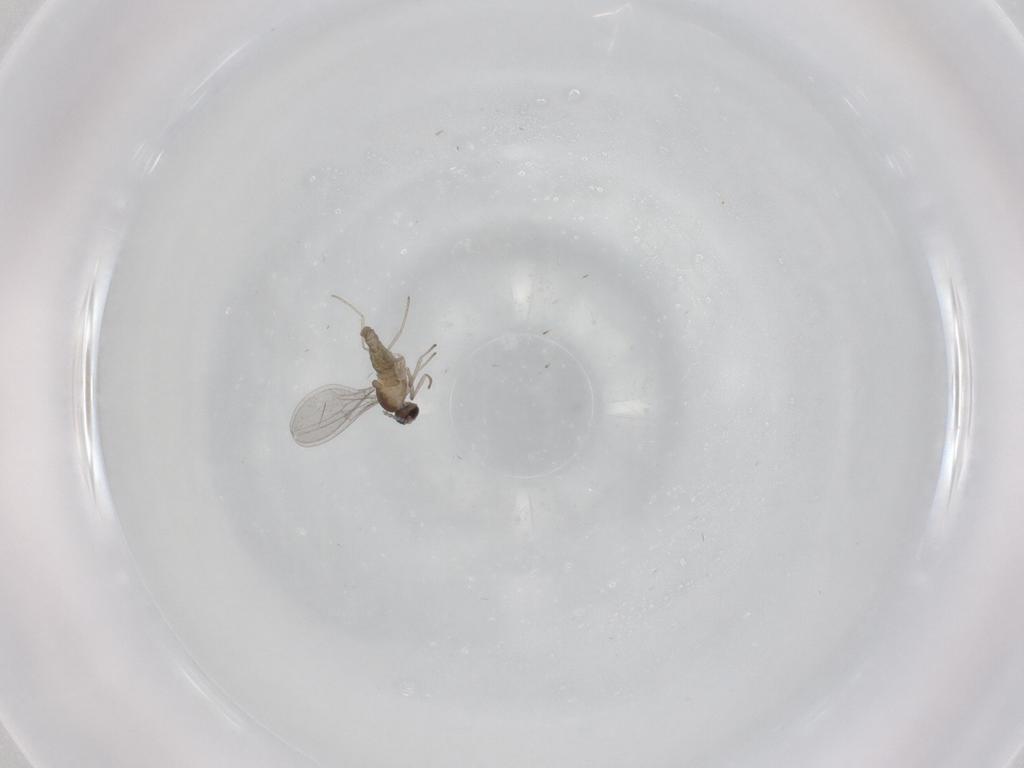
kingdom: Animalia
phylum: Arthropoda
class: Insecta
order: Diptera
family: Cecidomyiidae
